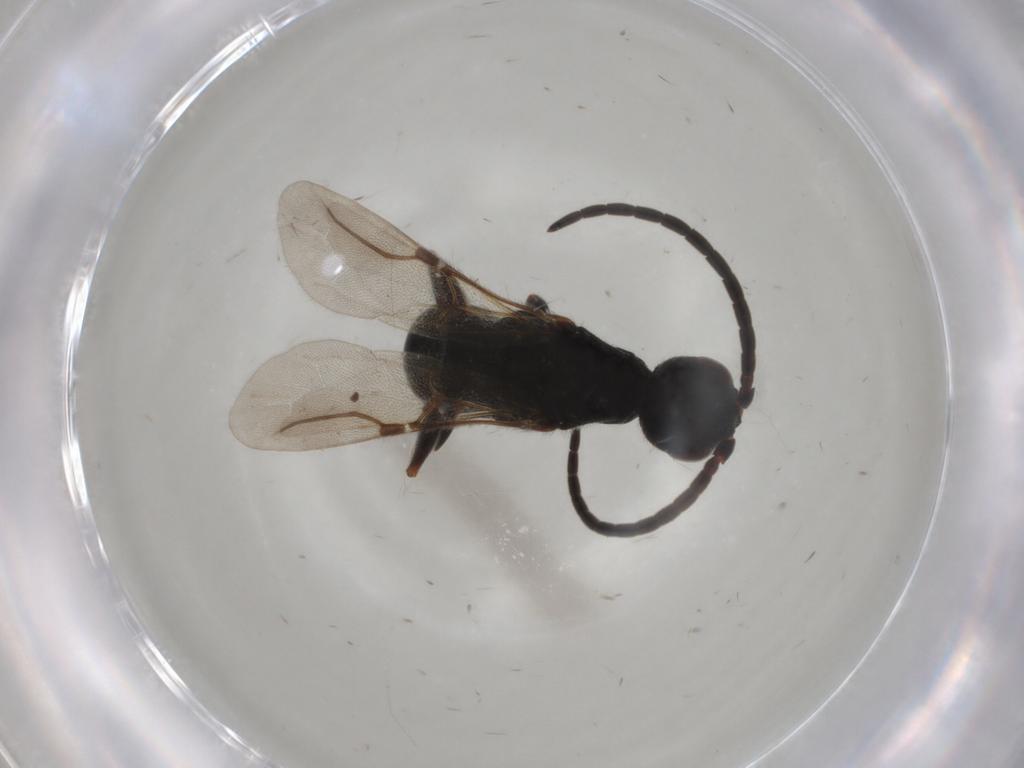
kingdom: Animalia
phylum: Arthropoda
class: Insecta
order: Hymenoptera
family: Bethylidae
